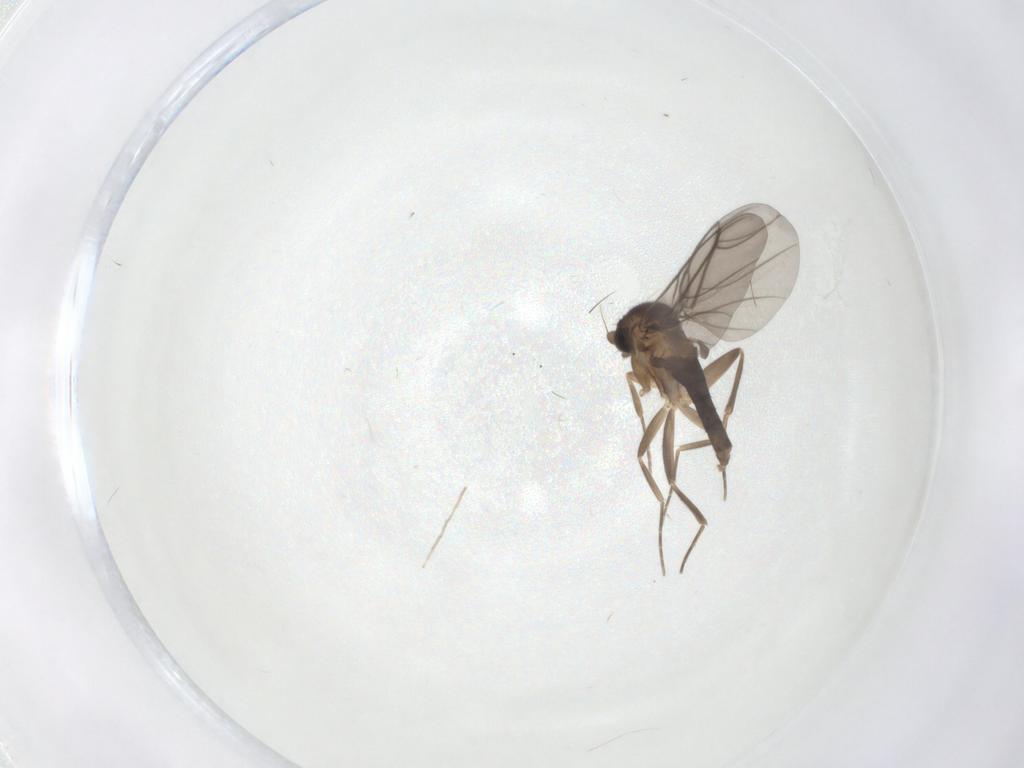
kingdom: Animalia
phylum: Arthropoda
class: Insecta
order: Diptera
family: Phoridae
